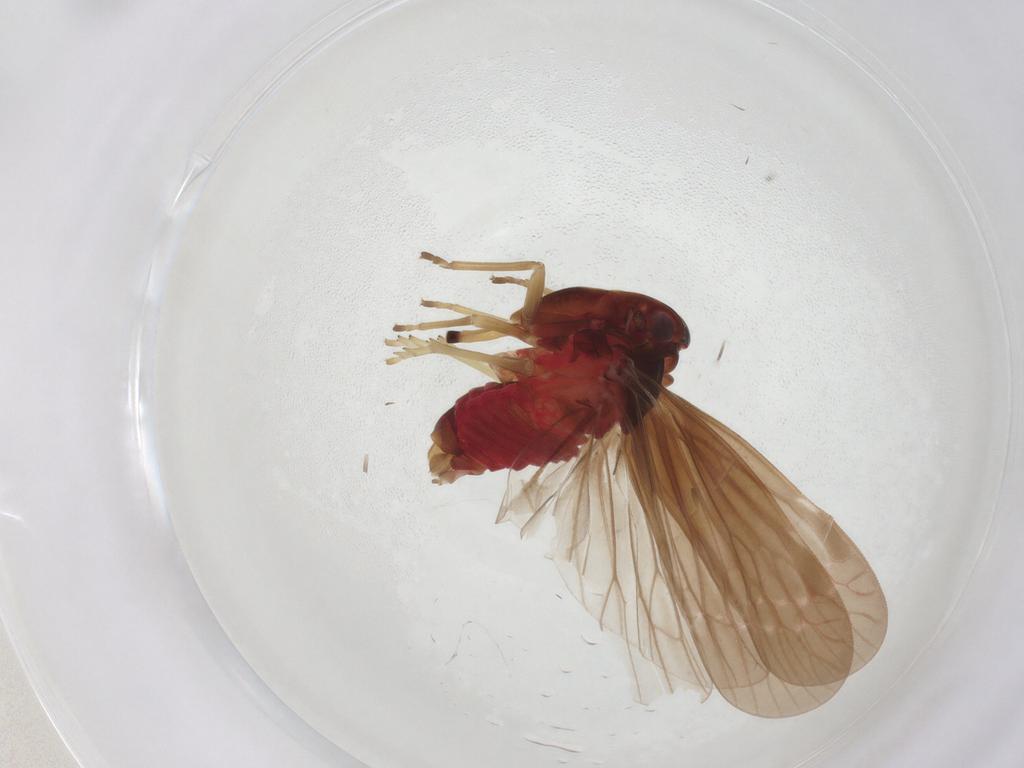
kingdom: Animalia
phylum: Arthropoda
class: Insecta
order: Hemiptera
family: Derbidae
